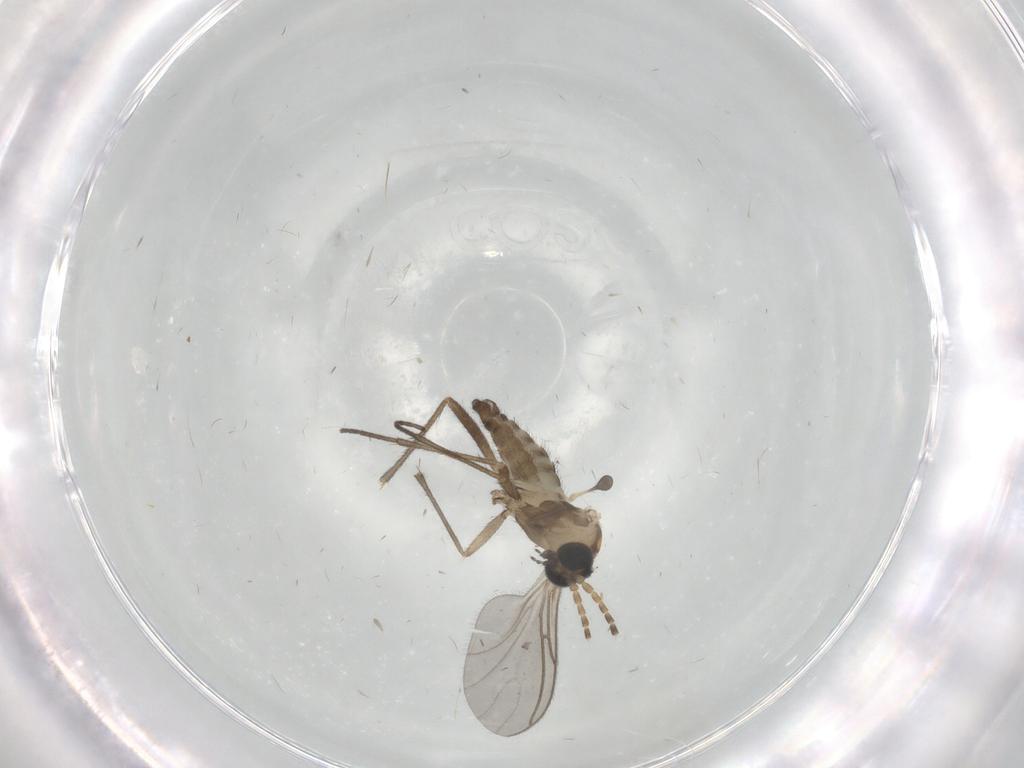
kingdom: Animalia
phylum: Arthropoda
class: Insecta
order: Diptera
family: Sciaridae
